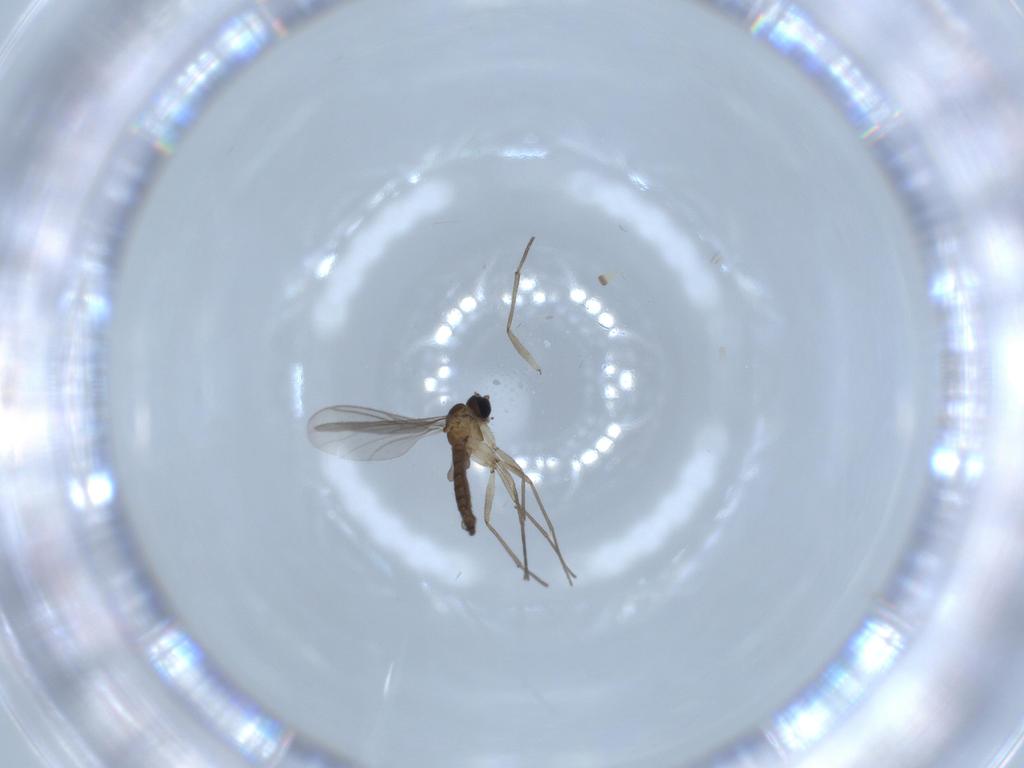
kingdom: Animalia
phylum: Arthropoda
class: Insecta
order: Diptera
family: Sciaridae
